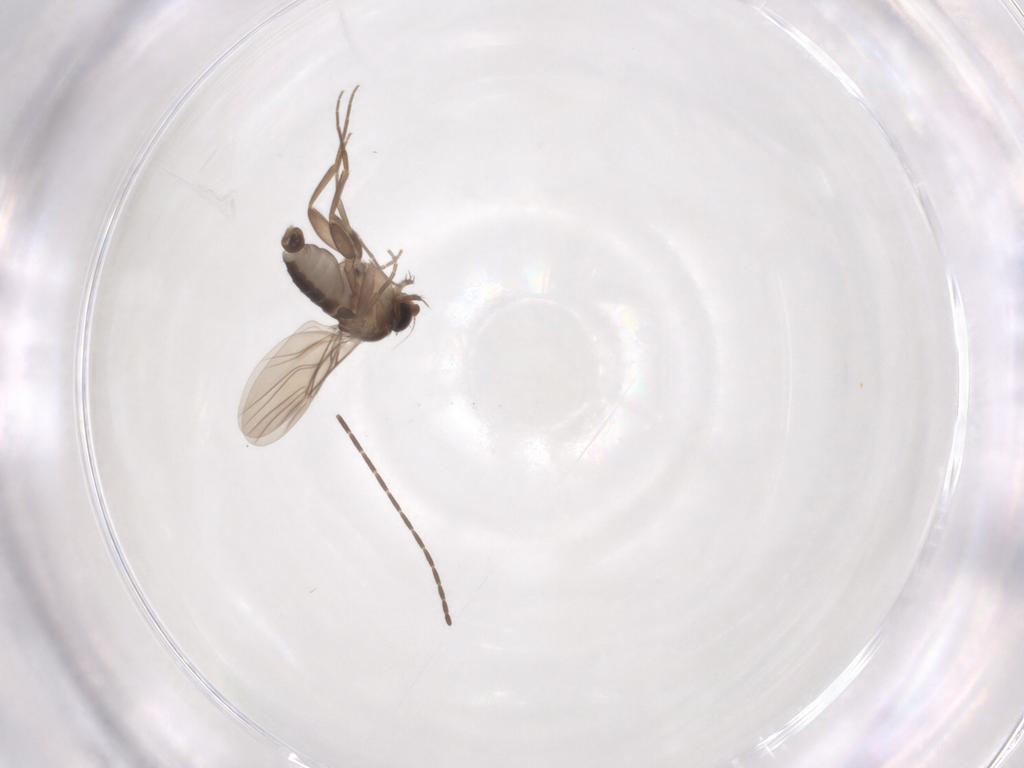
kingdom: Animalia
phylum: Arthropoda
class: Insecta
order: Diptera
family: Phoridae
